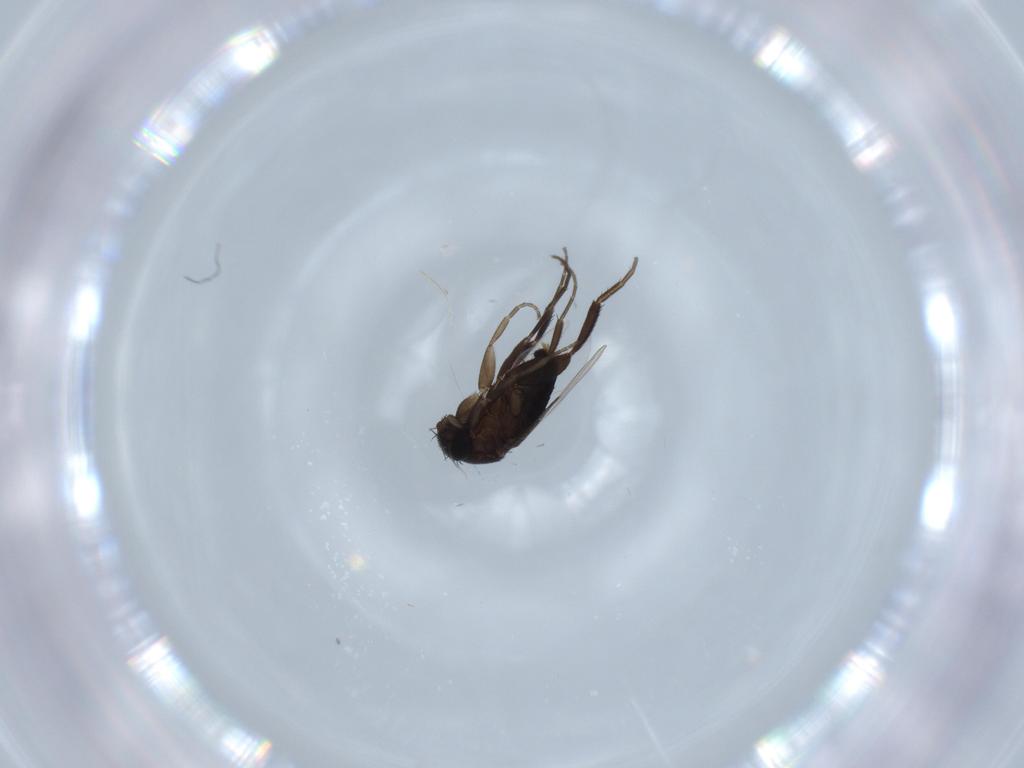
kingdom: Animalia
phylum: Arthropoda
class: Insecta
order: Diptera
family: Phoridae
